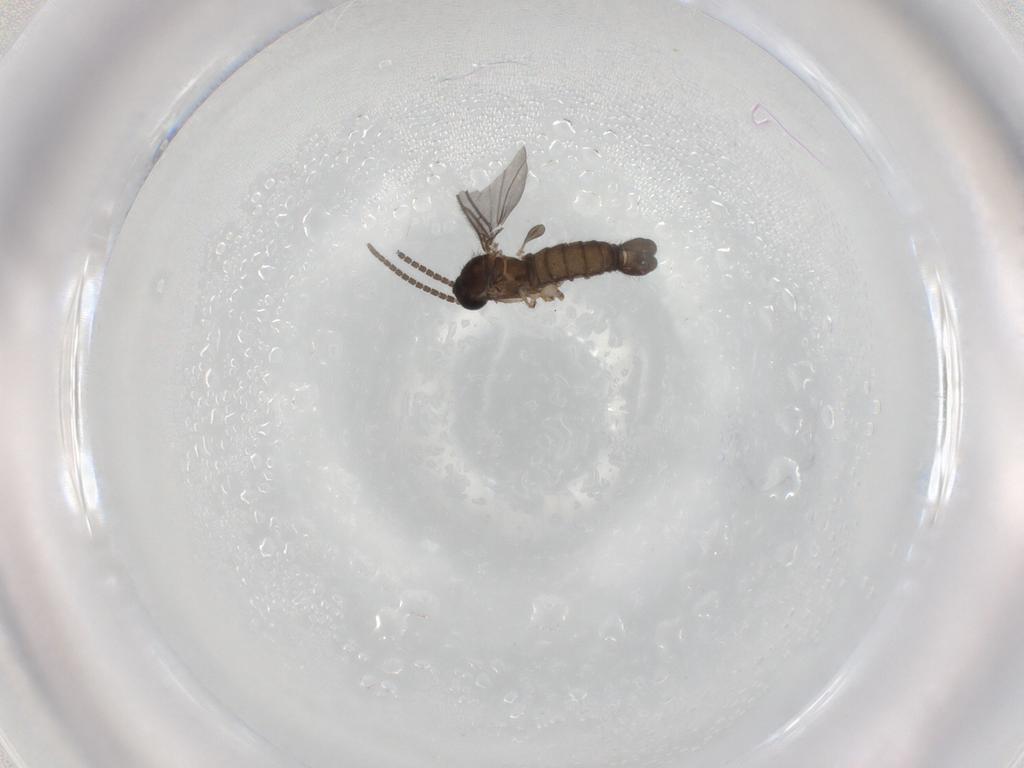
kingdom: Animalia
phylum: Arthropoda
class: Insecta
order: Diptera
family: Sciaridae
